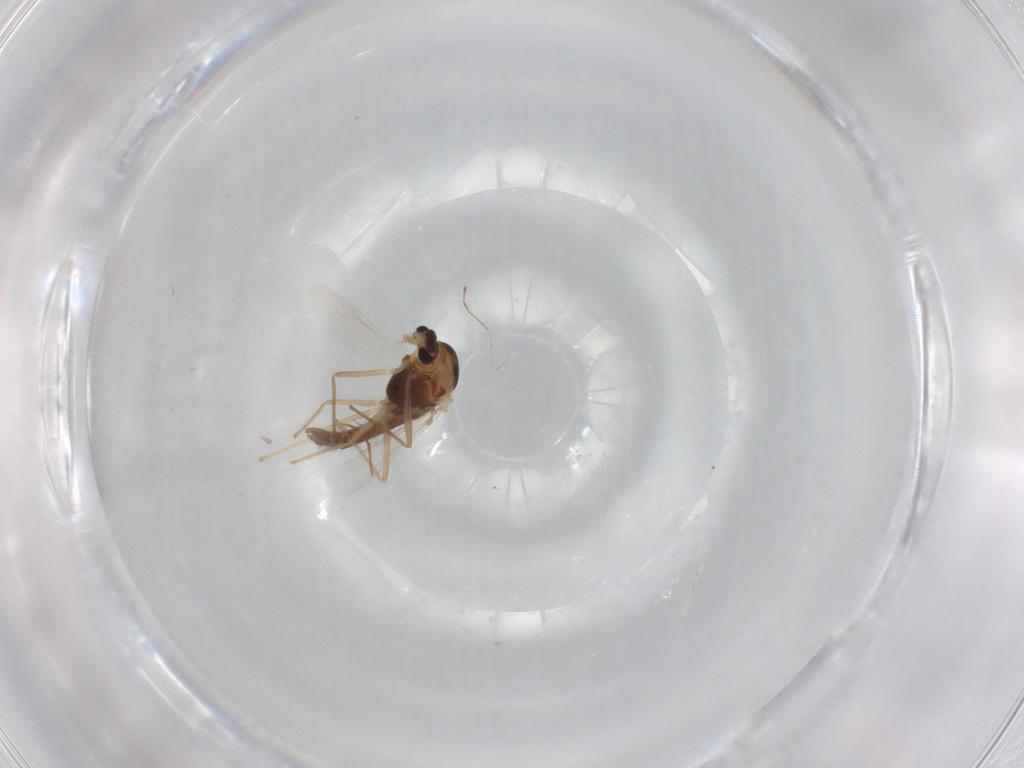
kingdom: Animalia
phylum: Arthropoda
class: Insecta
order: Diptera
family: Chironomidae
